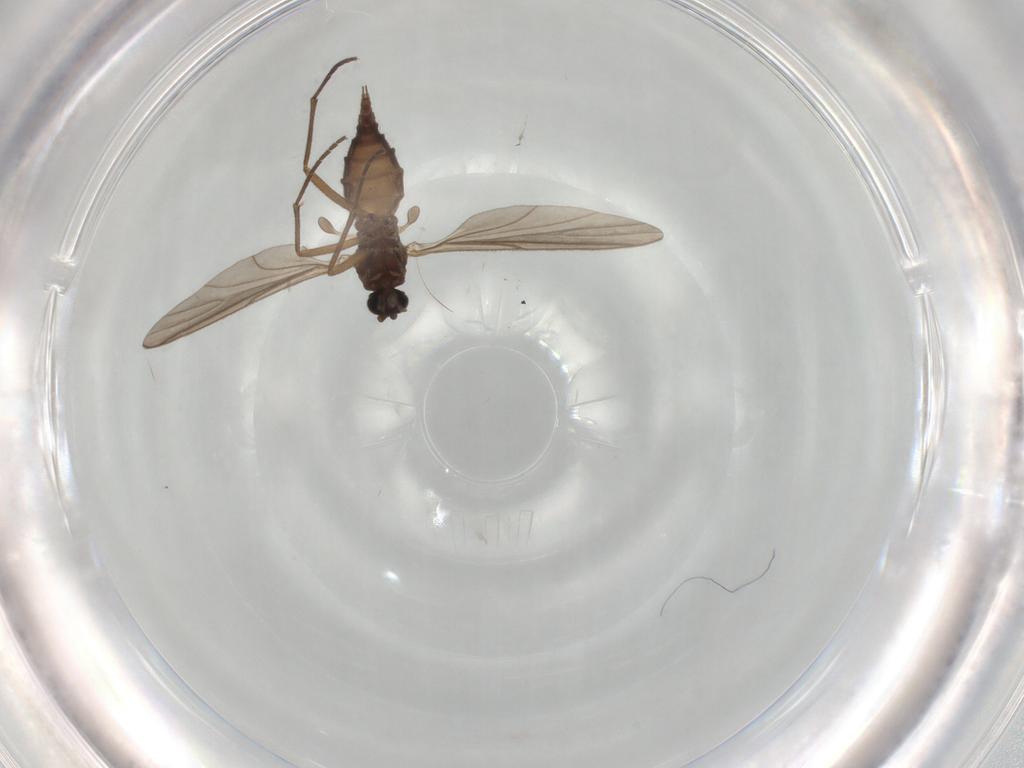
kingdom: Animalia
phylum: Arthropoda
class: Insecta
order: Diptera
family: Sciaridae
